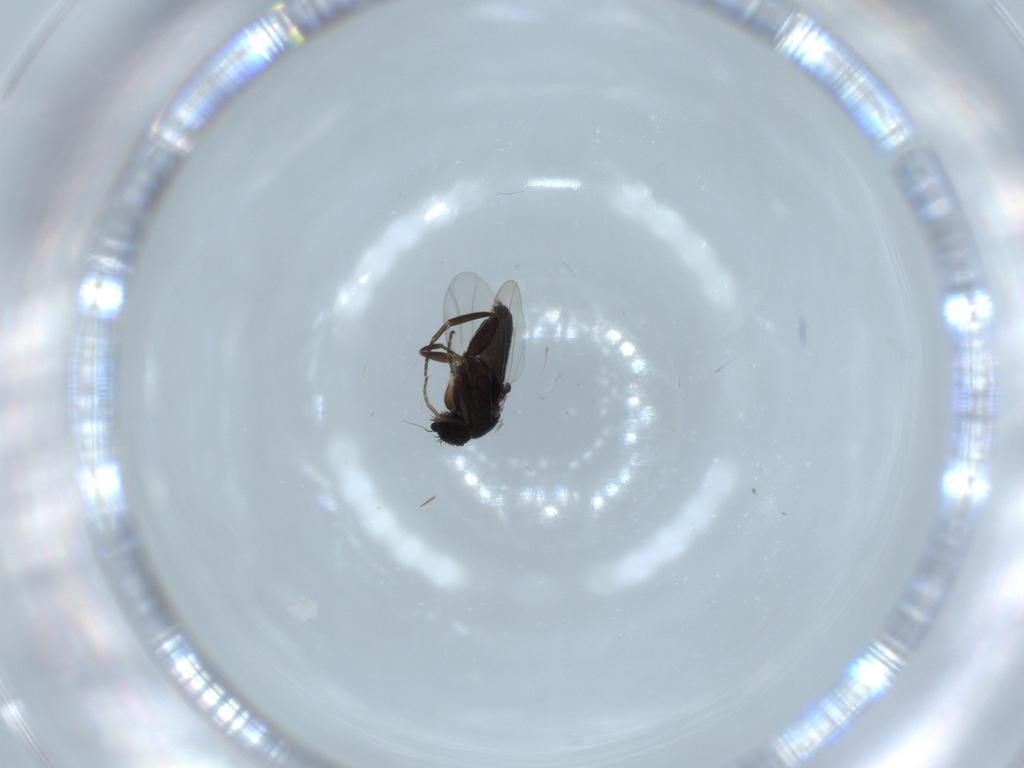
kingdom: Animalia
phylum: Arthropoda
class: Insecta
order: Diptera
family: Phoridae
